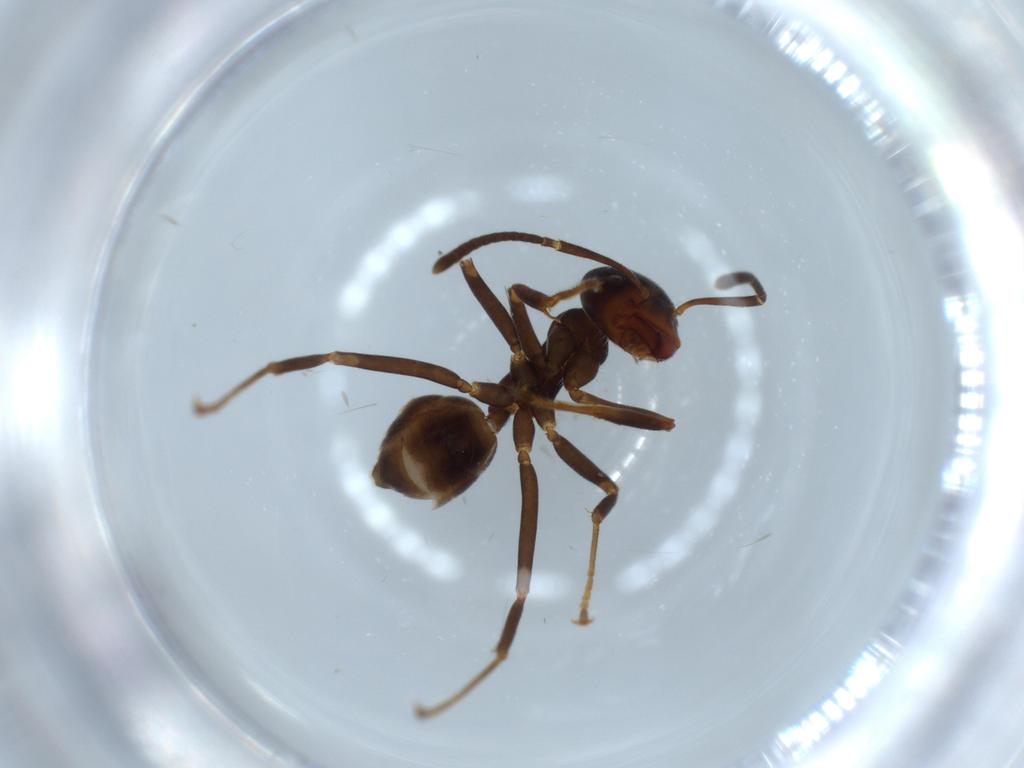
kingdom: Animalia
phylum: Arthropoda
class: Insecta
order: Hymenoptera
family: Formicidae
